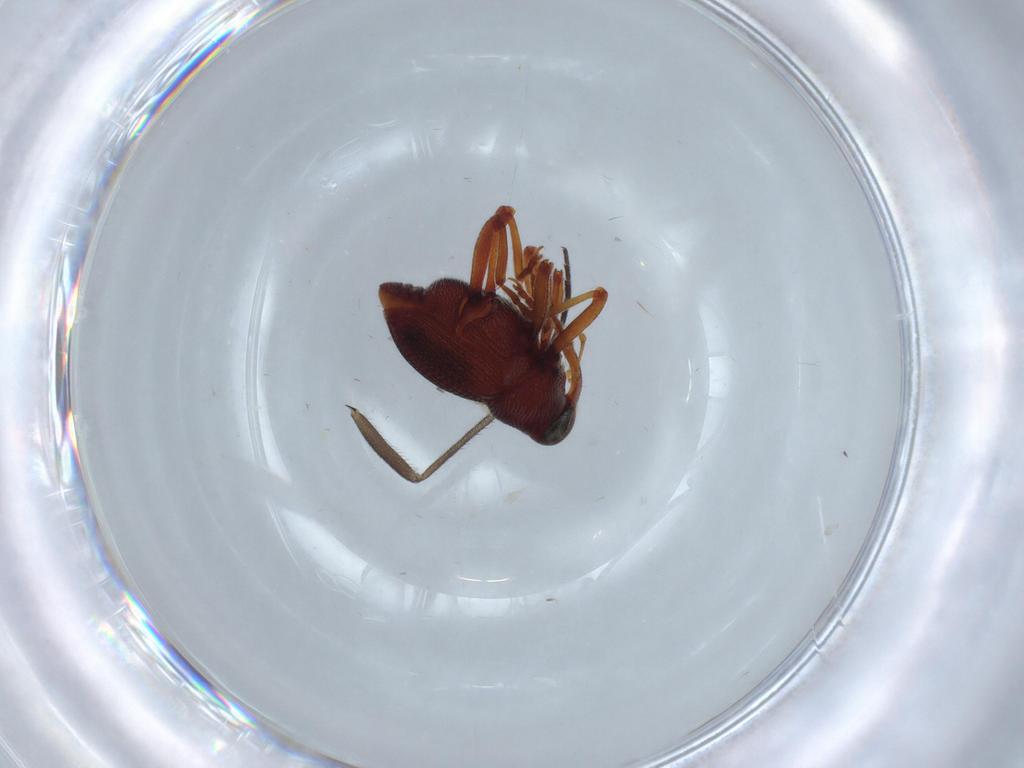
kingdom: Animalia
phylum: Arthropoda
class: Insecta
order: Coleoptera
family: Curculionidae
